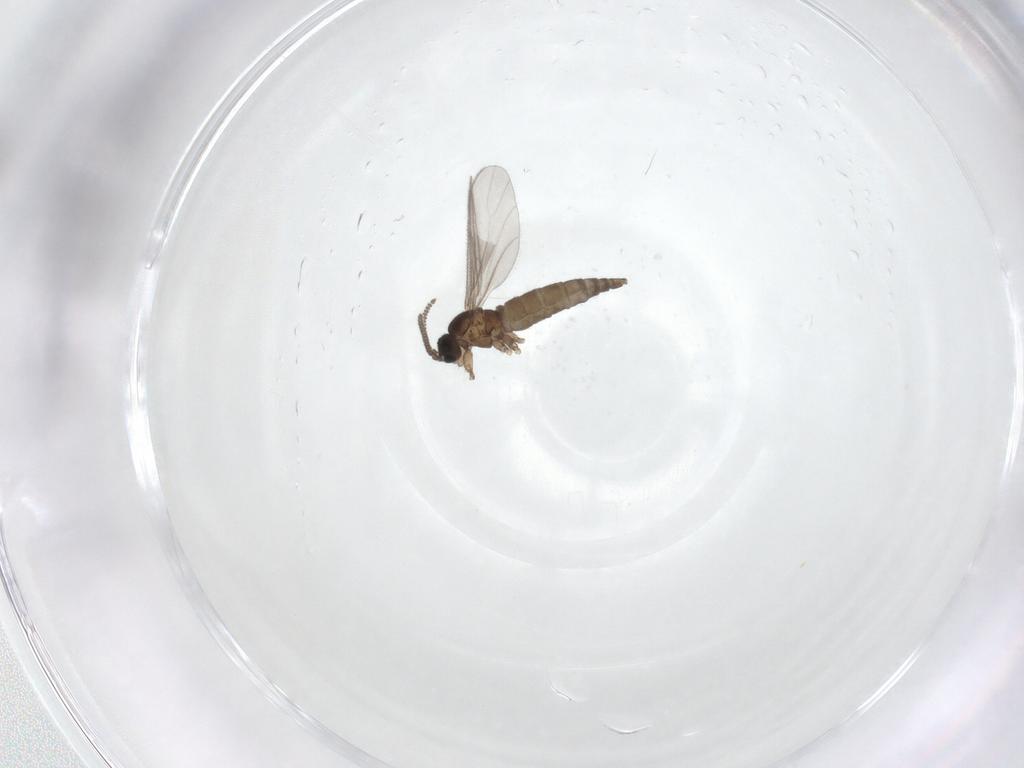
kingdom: Animalia
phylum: Arthropoda
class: Insecta
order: Diptera
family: Sciaridae
